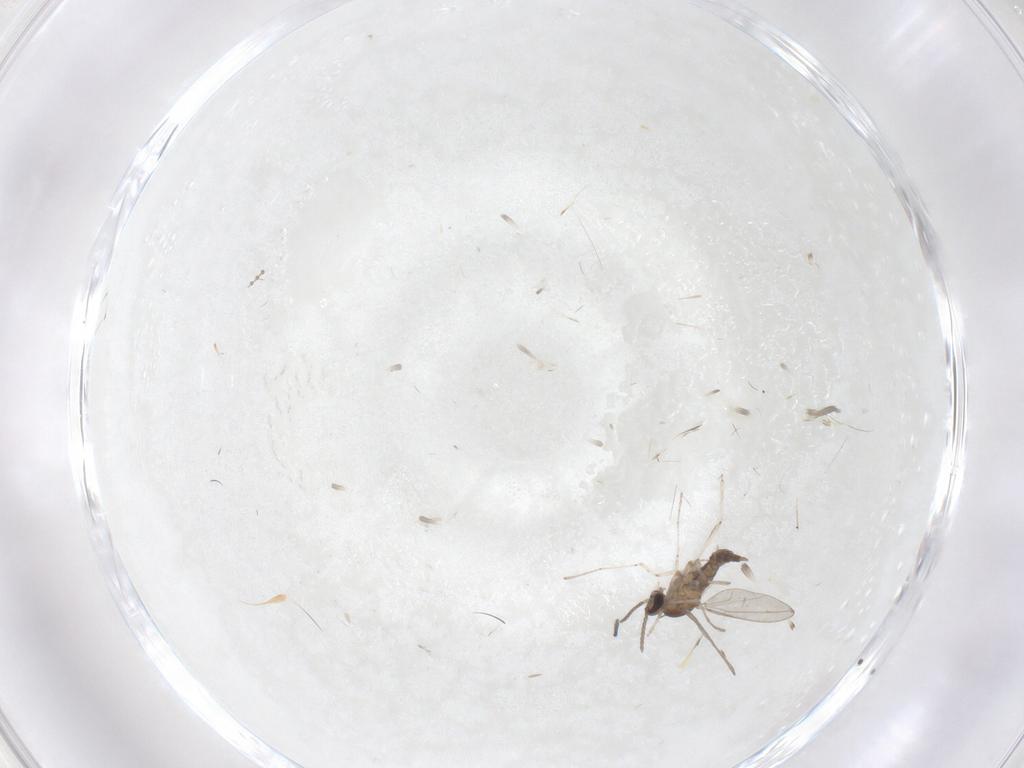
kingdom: Animalia
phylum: Arthropoda
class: Insecta
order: Diptera
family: Cecidomyiidae
